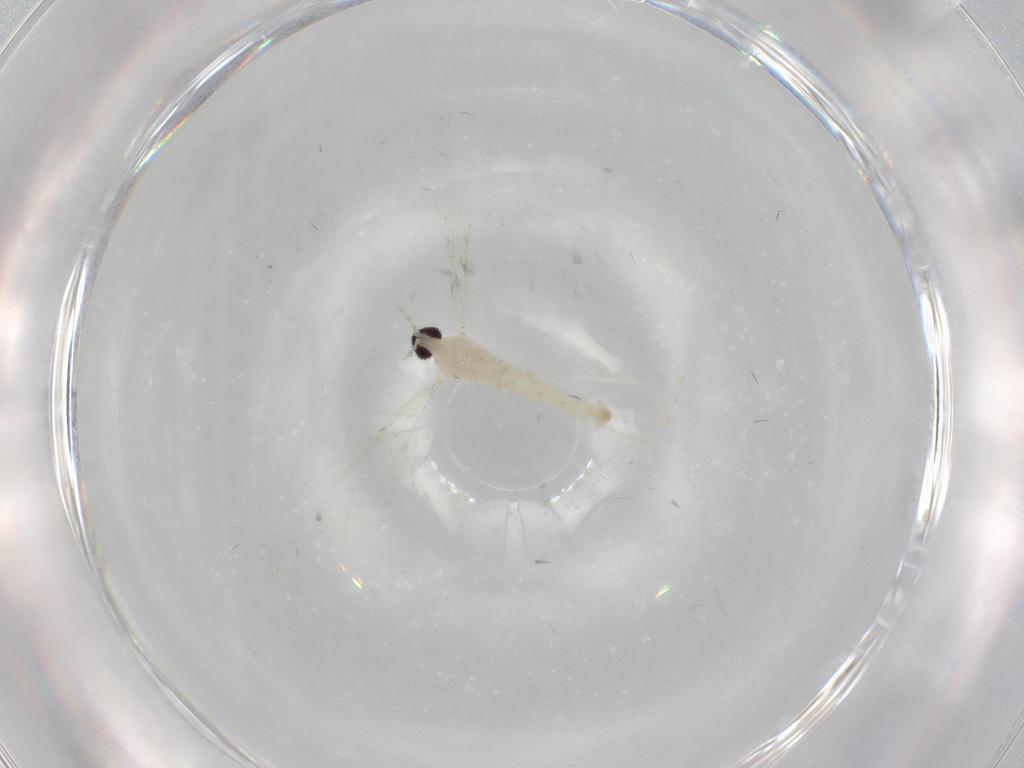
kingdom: Animalia
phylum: Arthropoda
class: Insecta
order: Diptera
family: Cecidomyiidae
